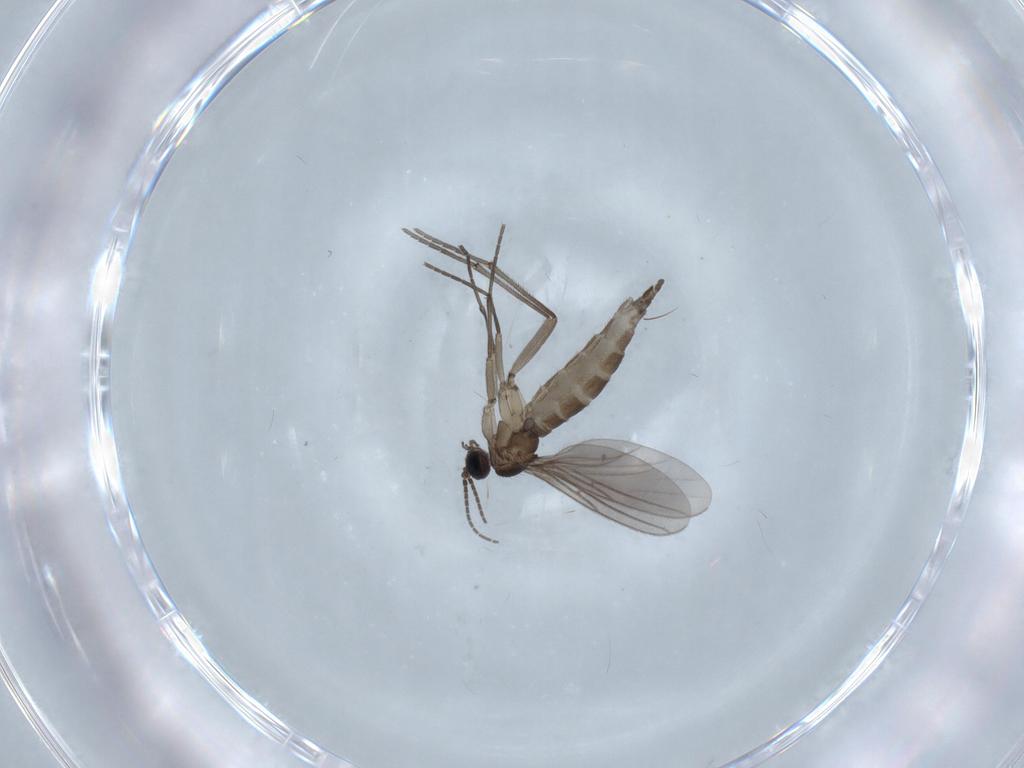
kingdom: Animalia
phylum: Arthropoda
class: Insecta
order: Diptera
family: Sciaridae
